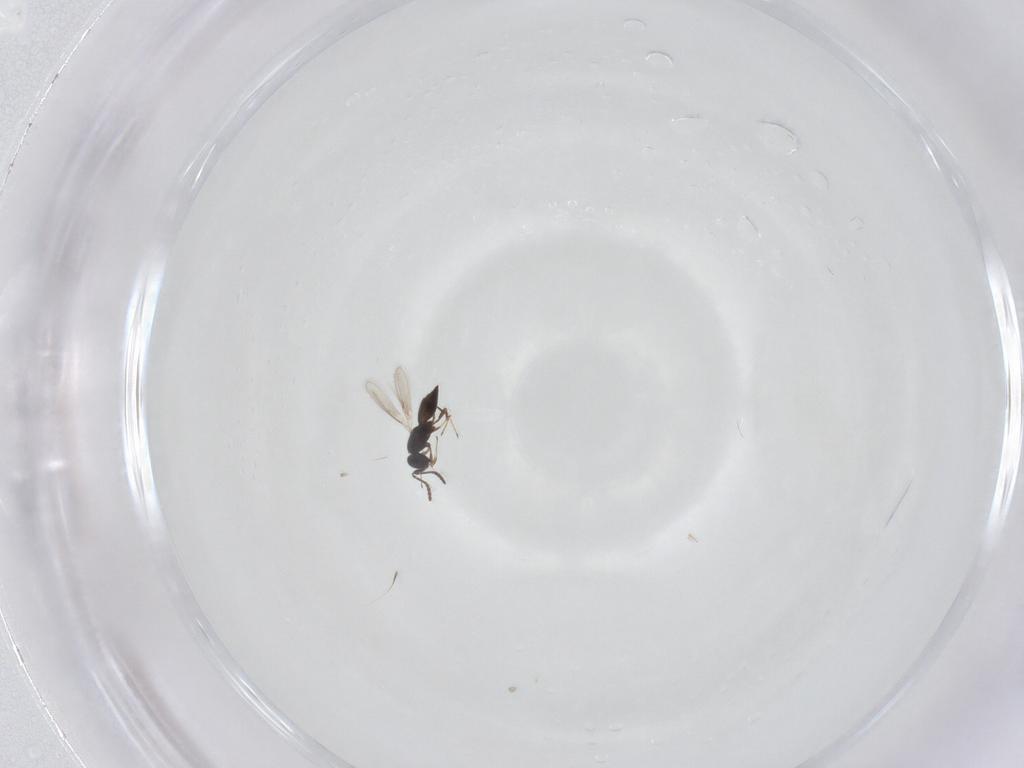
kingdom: Animalia
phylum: Arthropoda
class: Insecta
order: Hymenoptera
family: Scelionidae
